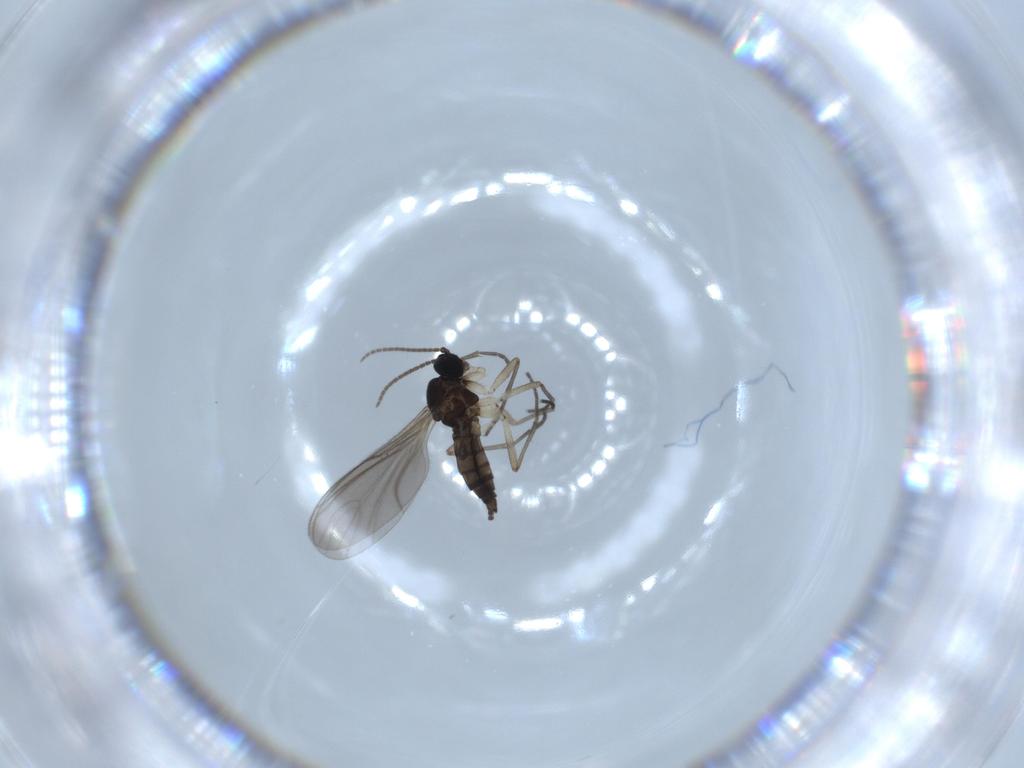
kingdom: Animalia
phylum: Arthropoda
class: Insecta
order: Diptera
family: Sciaridae
